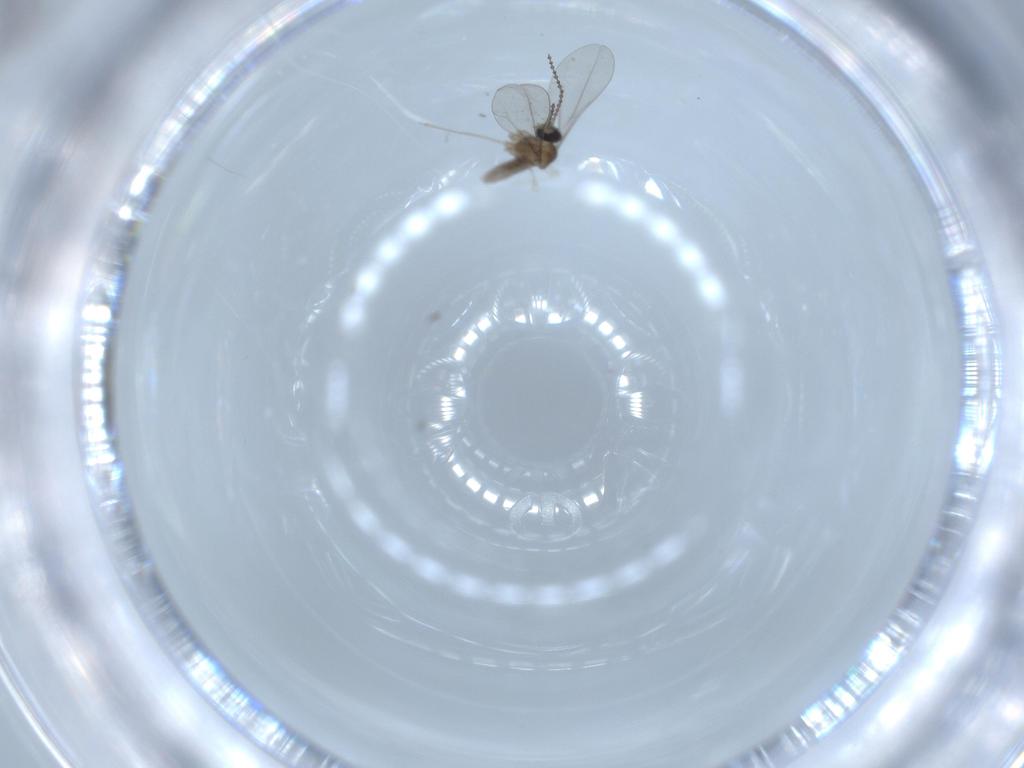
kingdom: Animalia
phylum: Arthropoda
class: Insecta
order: Diptera
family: Cecidomyiidae
